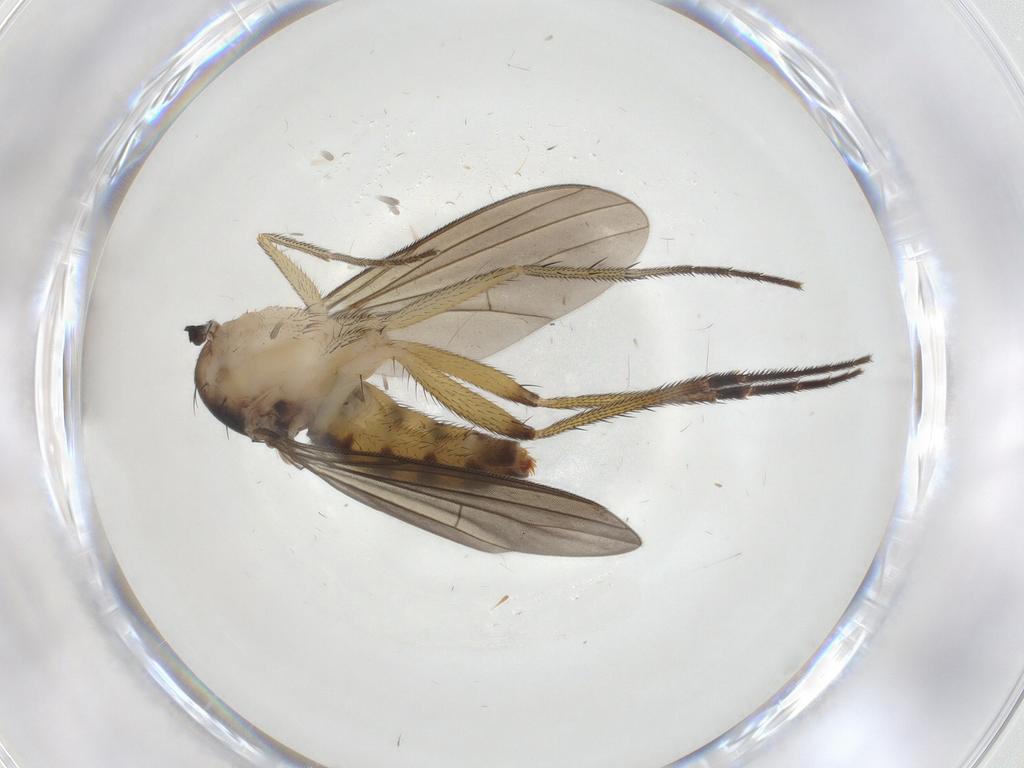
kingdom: Animalia
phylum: Arthropoda
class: Insecta
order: Diptera
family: Dolichopodidae
